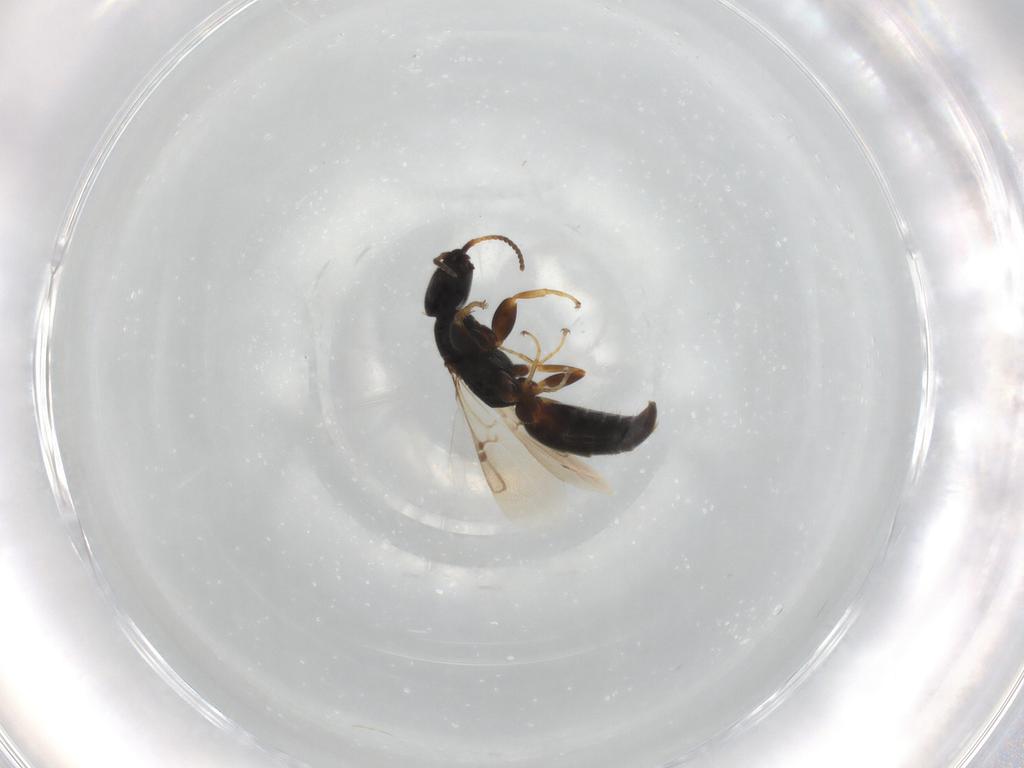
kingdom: Animalia
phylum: Arthropoda
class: Insecta
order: Hymenoptera
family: Bethylidae
